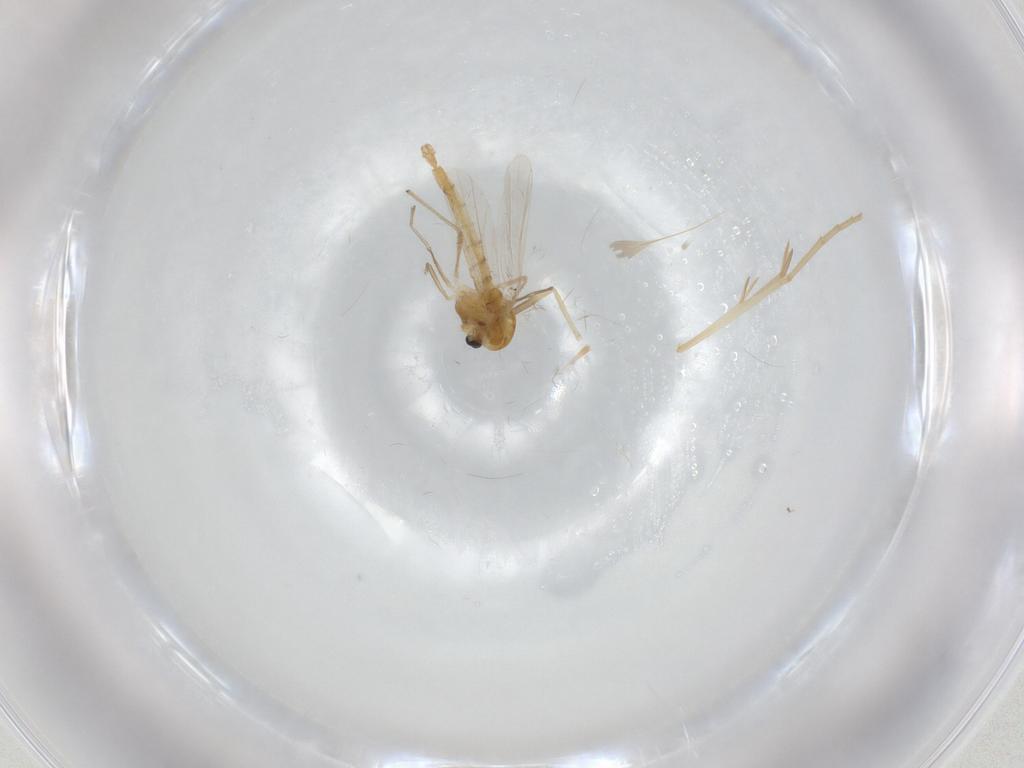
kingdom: Animalia
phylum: Arthropoda
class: Insecta
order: Diptera
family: Chironomidae
